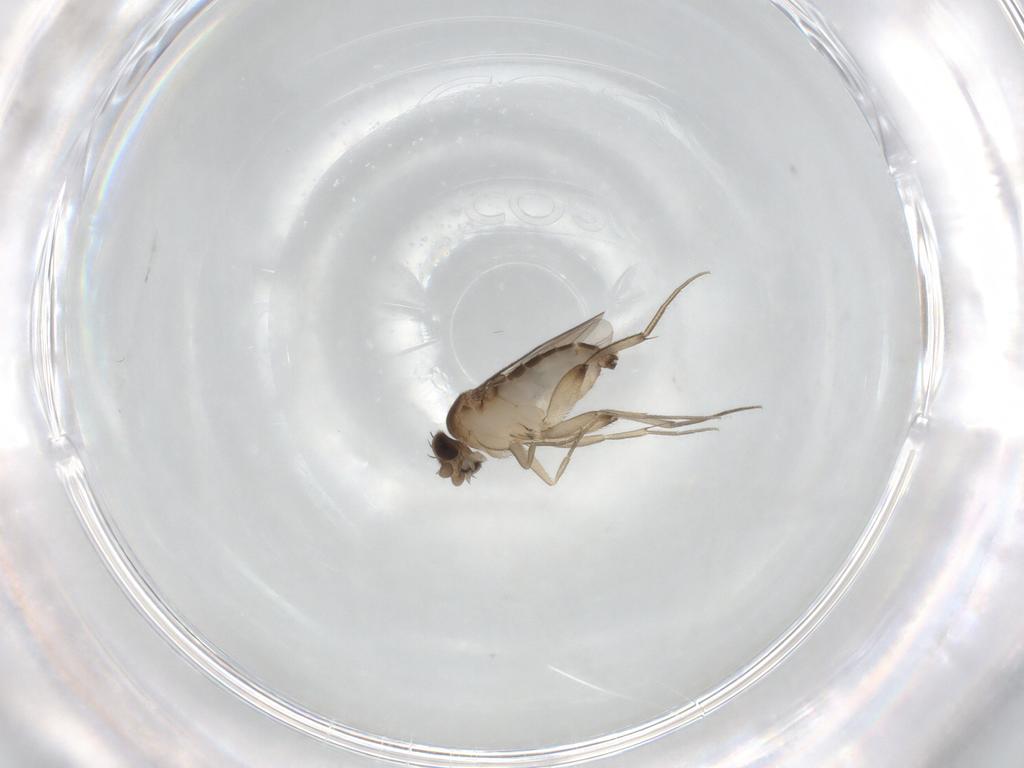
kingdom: Animalia
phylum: Arthropoda
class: Insecta
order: Diptera
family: Phoridae
